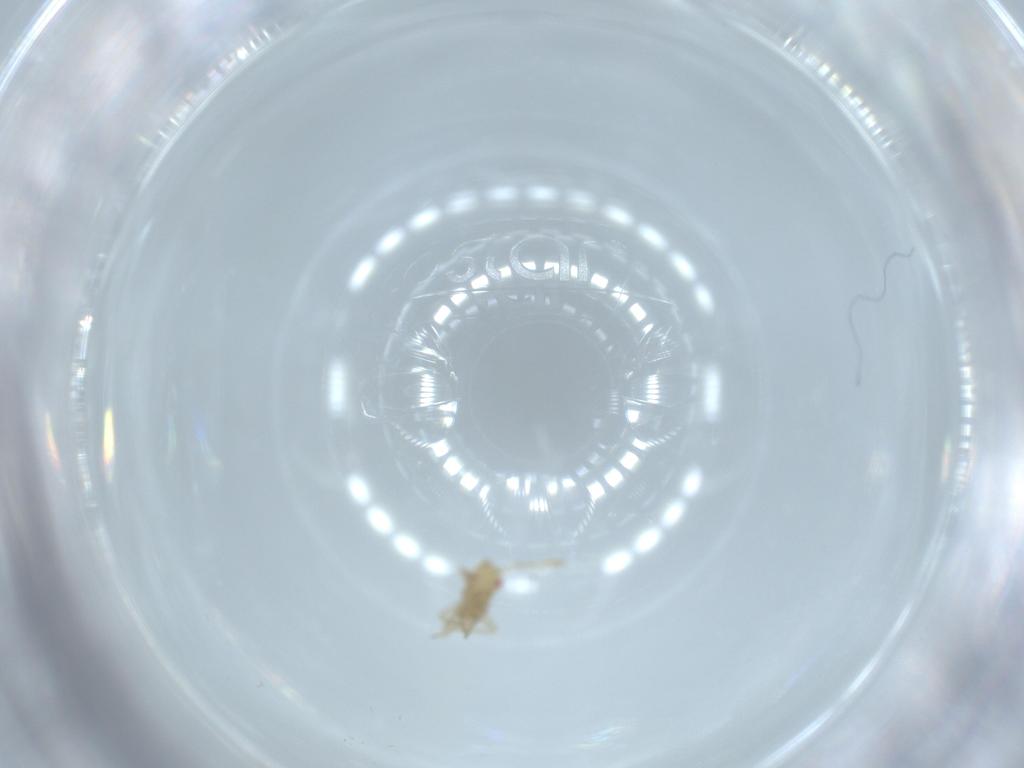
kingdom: Animalia
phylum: Arthropoda
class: Insecta
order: Hemiptera
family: Miridae
